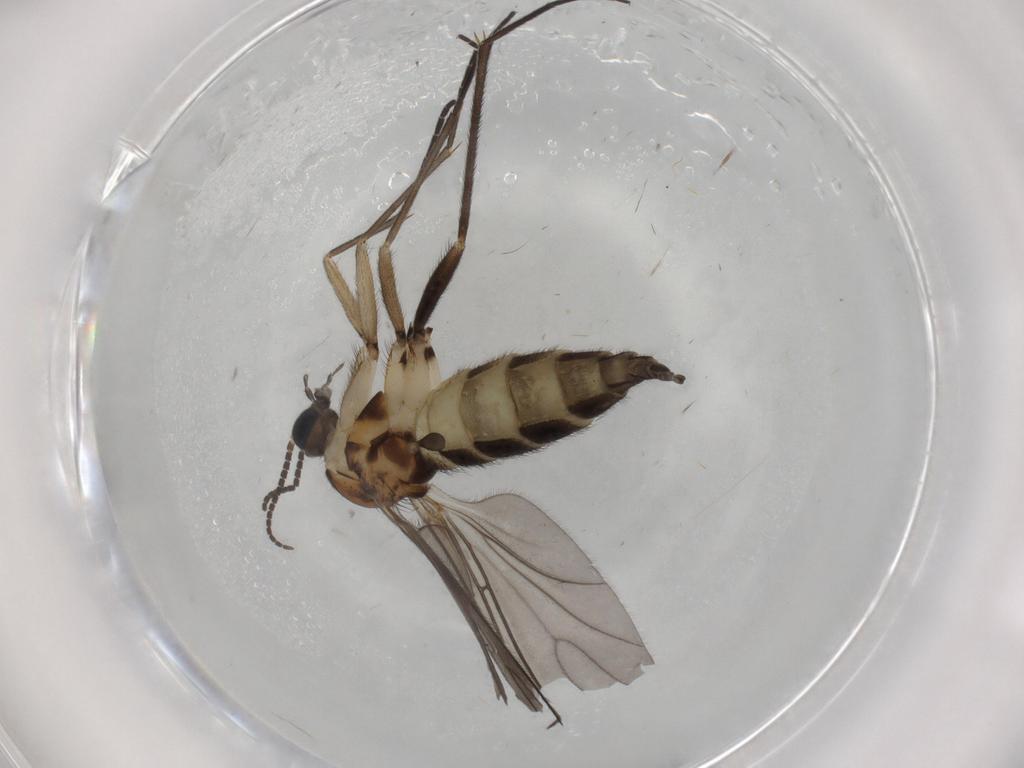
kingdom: Animalia
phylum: Arthropoda
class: Insecta
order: Diptera
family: Sciaridae
